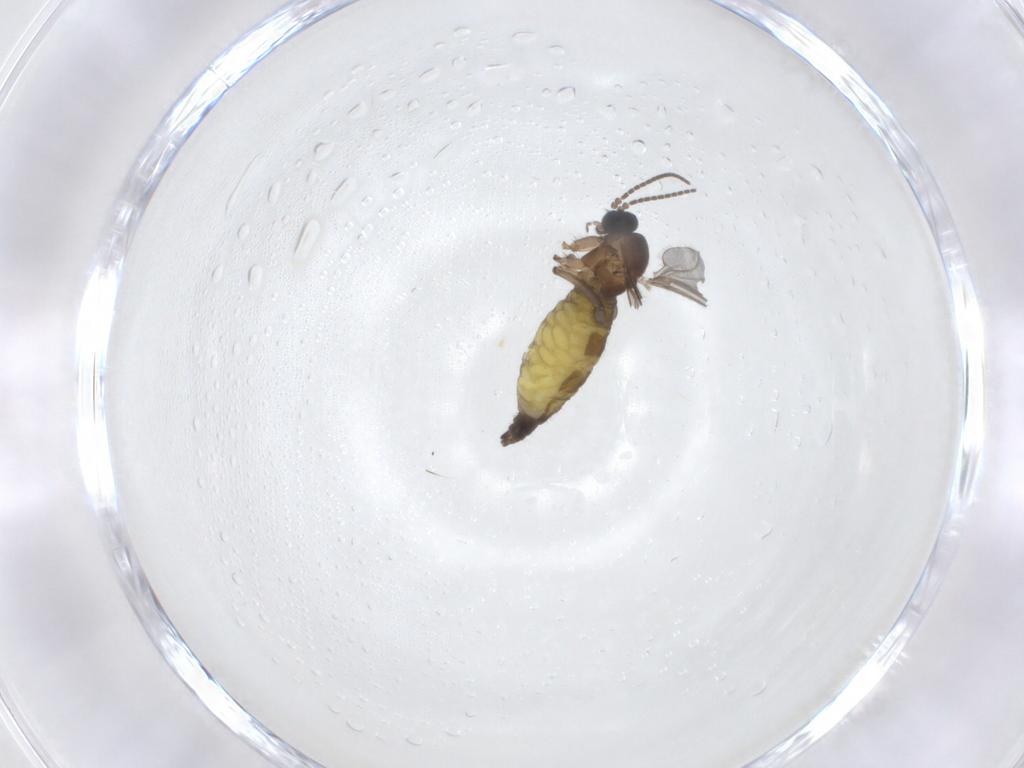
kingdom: Animalia
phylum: Arthropoda
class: Insecta
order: Diptera
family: Sciaridae
